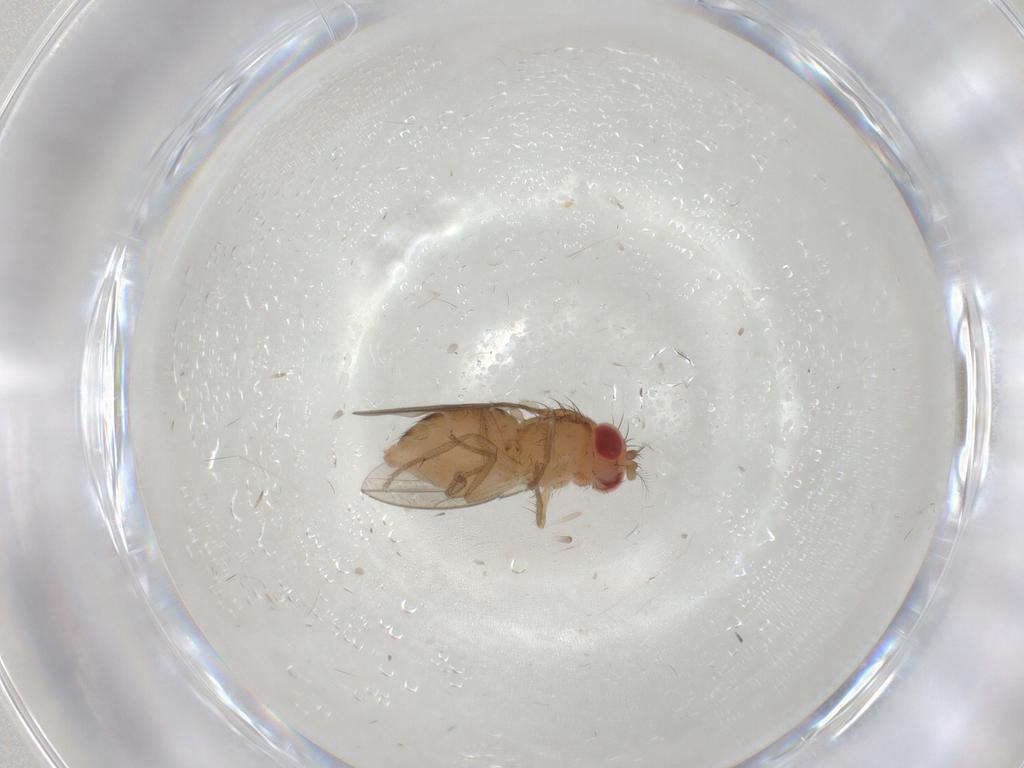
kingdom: Animalia
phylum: Arthropoda
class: Insecta
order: Diptera
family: Drosophilidae
